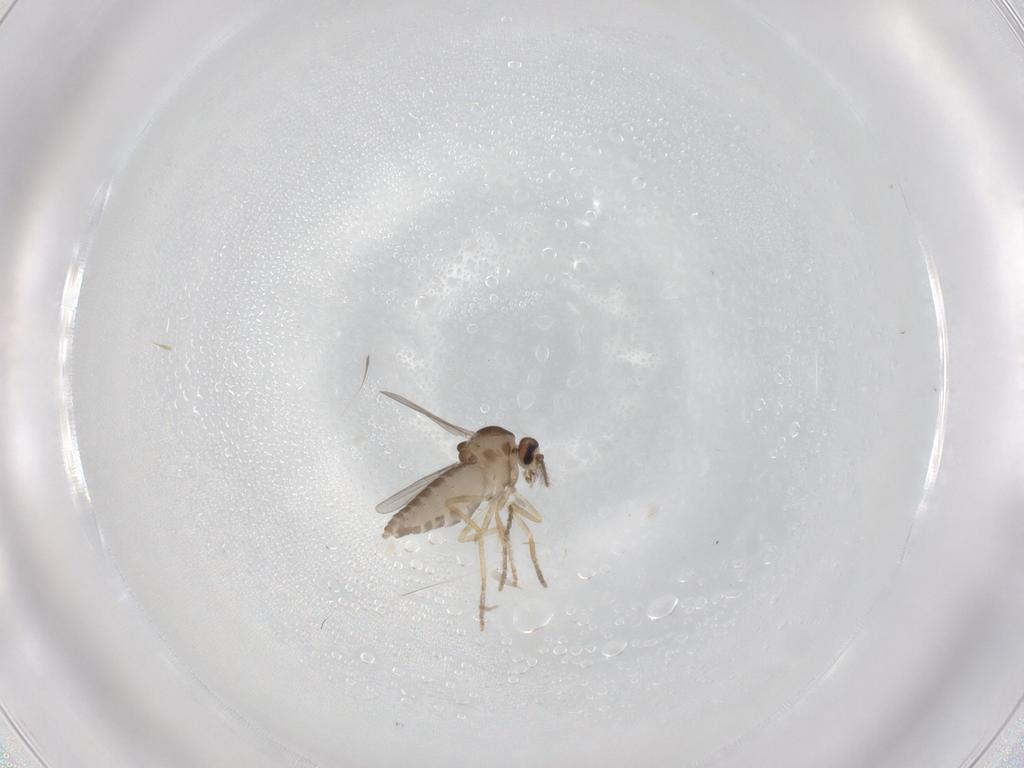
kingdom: Animalia
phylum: Arthropoda
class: Insecta
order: Diptera
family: Ceratopogonidae
